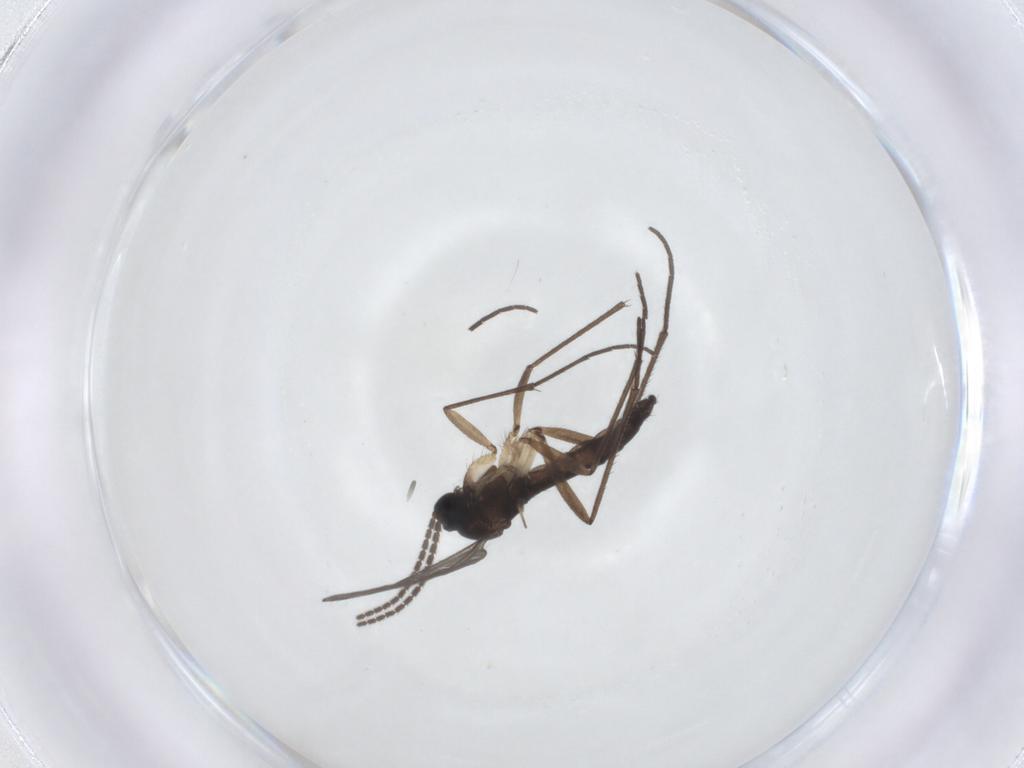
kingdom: Animalia
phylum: Arthropoda
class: Insecta
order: Diptera
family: Sciaridae
